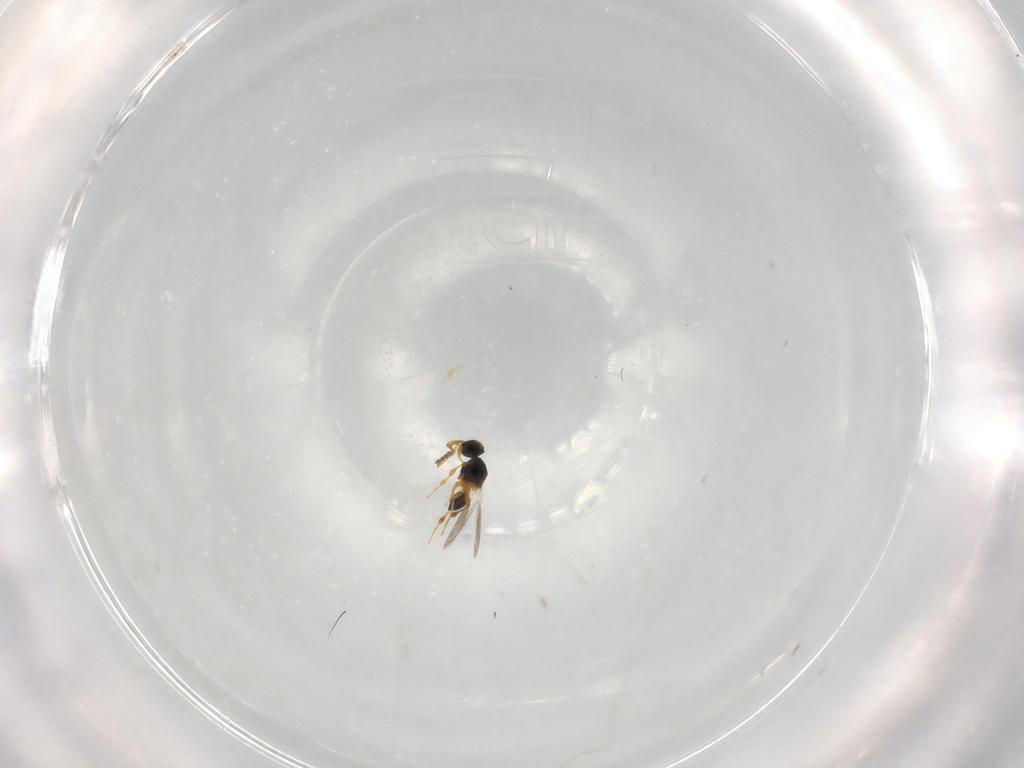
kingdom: Animalia
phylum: Arthropoda
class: Insecta
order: Hymenoptera
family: Platygastridae
